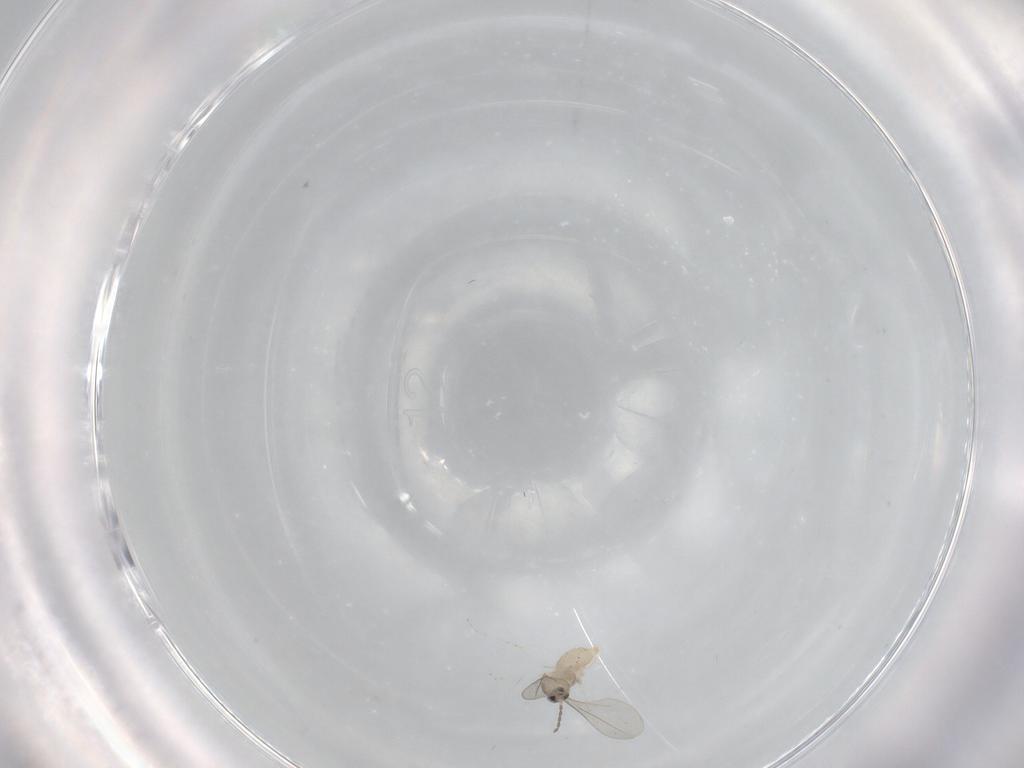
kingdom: Animalia
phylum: Arthropoda
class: Insecta
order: Diptera
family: Cecidomyiidae
